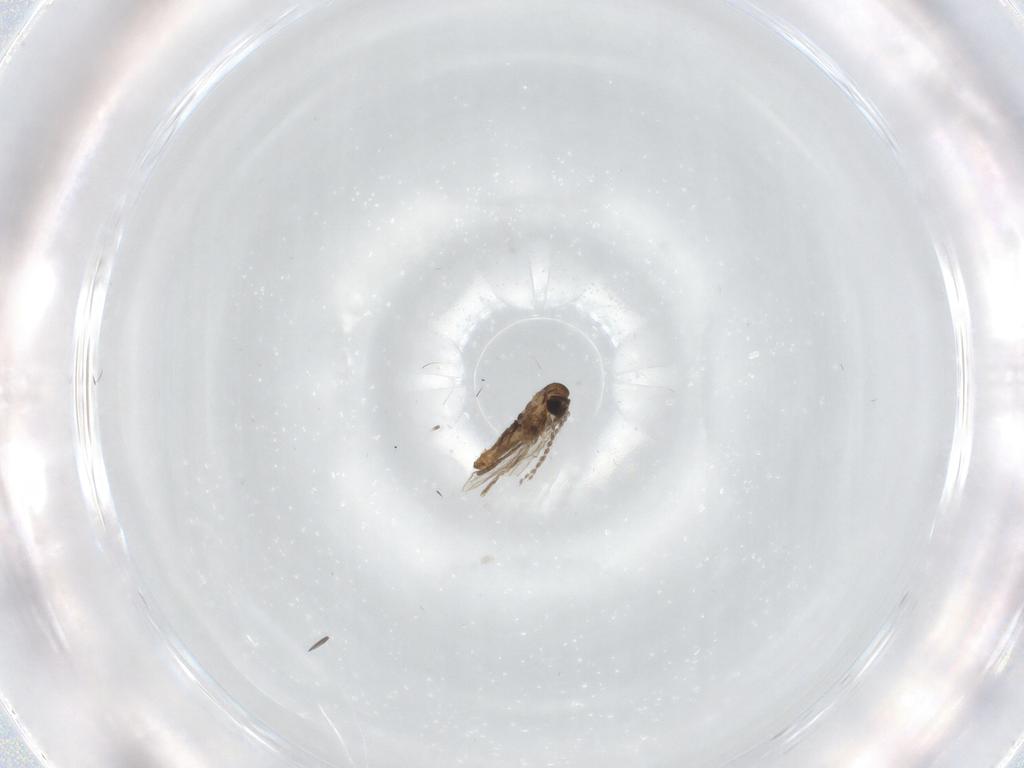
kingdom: Animalia
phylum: Arthropoda
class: Insecta
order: Diptera
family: Psychodidae
